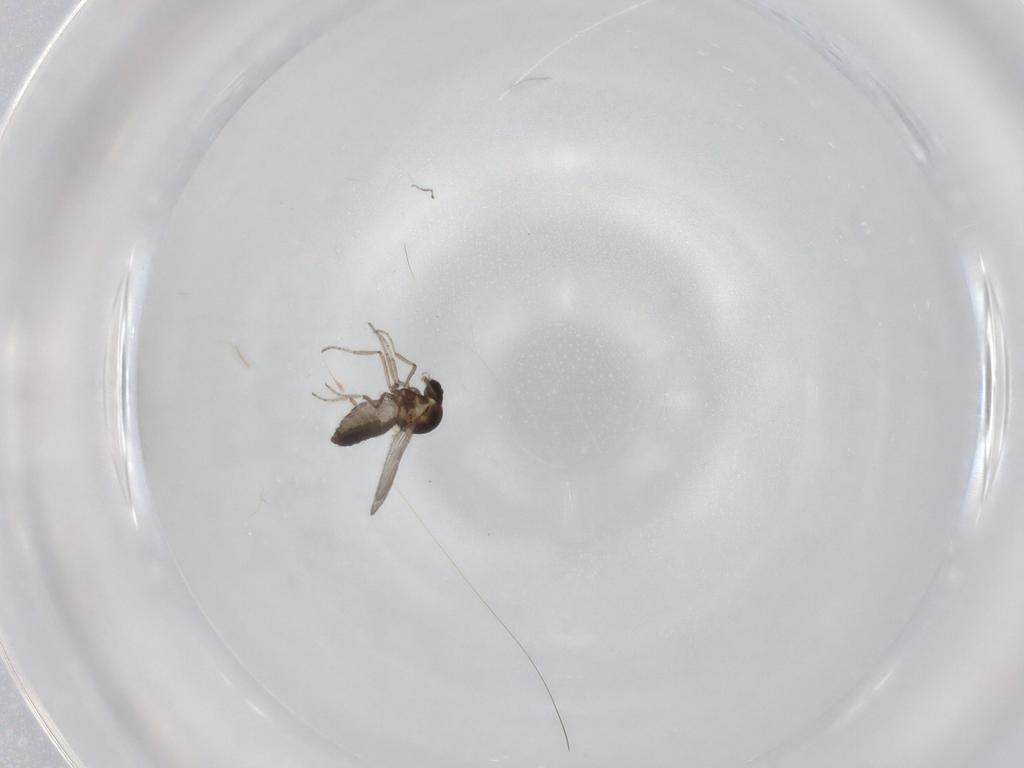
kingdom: Animalia
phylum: Arthropoda
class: Insecta
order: Diptera
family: Ceratopogonidae
